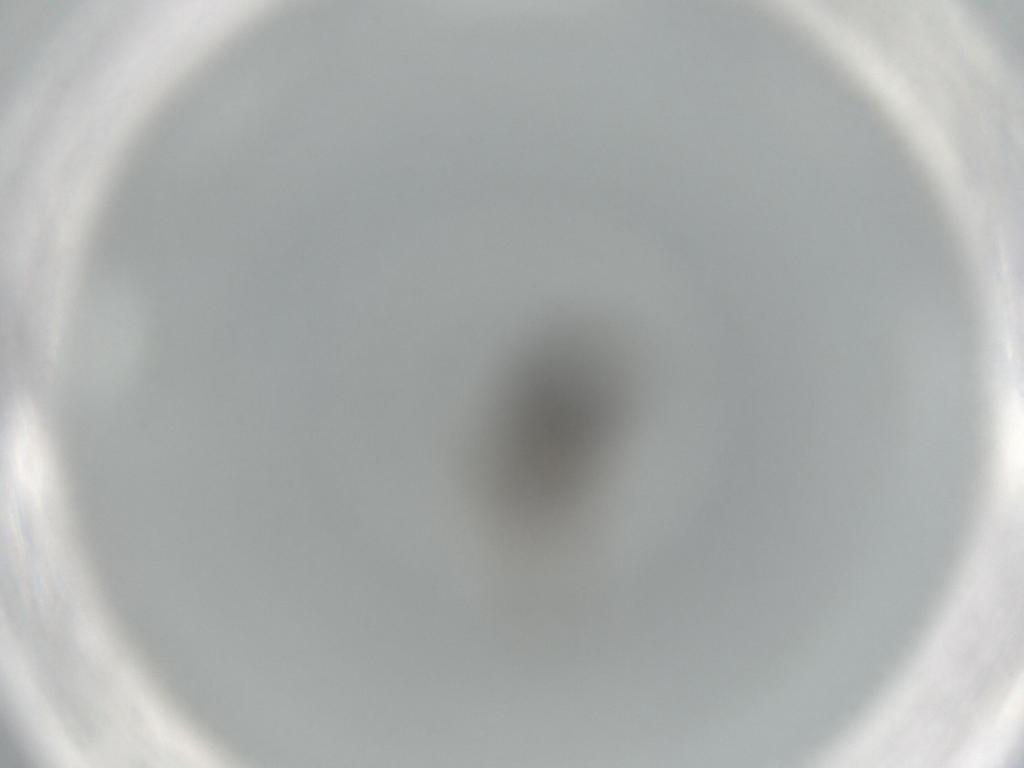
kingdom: Animalia
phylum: Arthropoda
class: Insecta
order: Diptera
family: Phoridae
